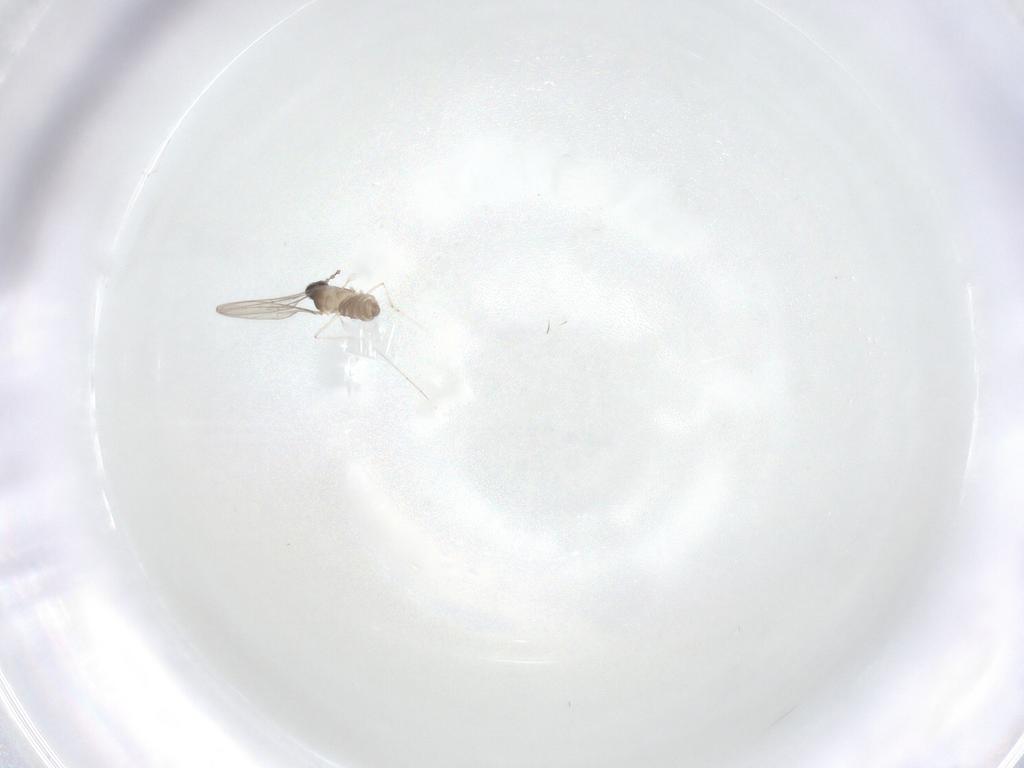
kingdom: Animalia
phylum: Arthropoda
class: Insecta
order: Diptera
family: Cecidomyiidae
